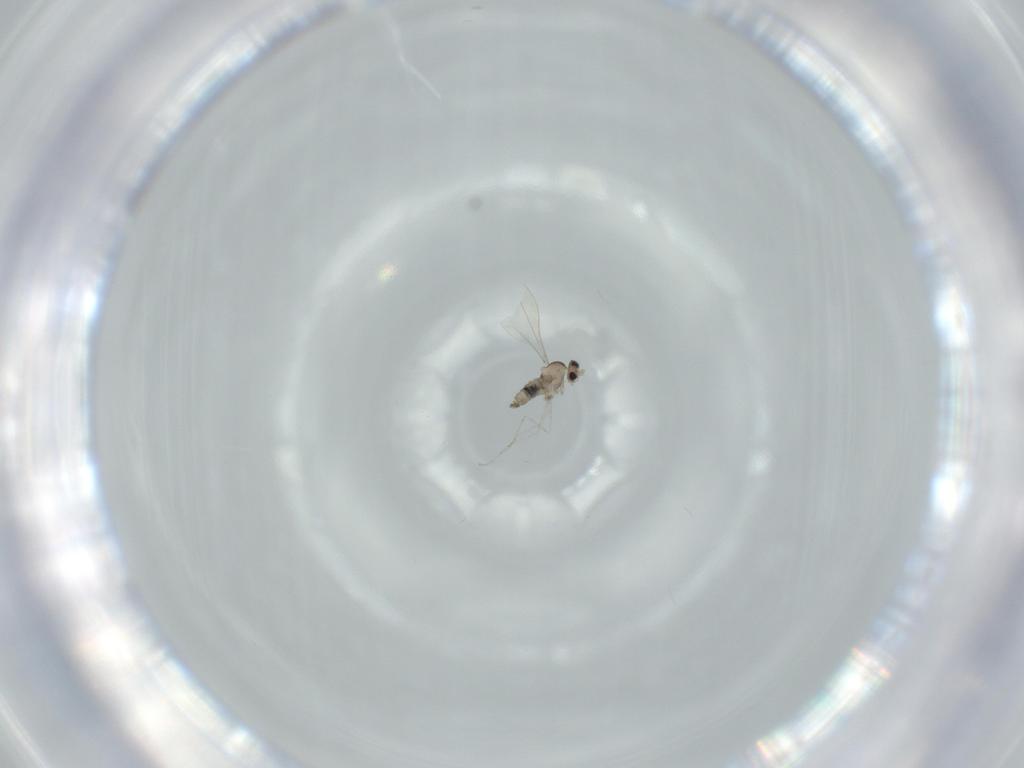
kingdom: Animalia
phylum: Arthropoda
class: Insecta
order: Diptera
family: Cecidomyiidae
